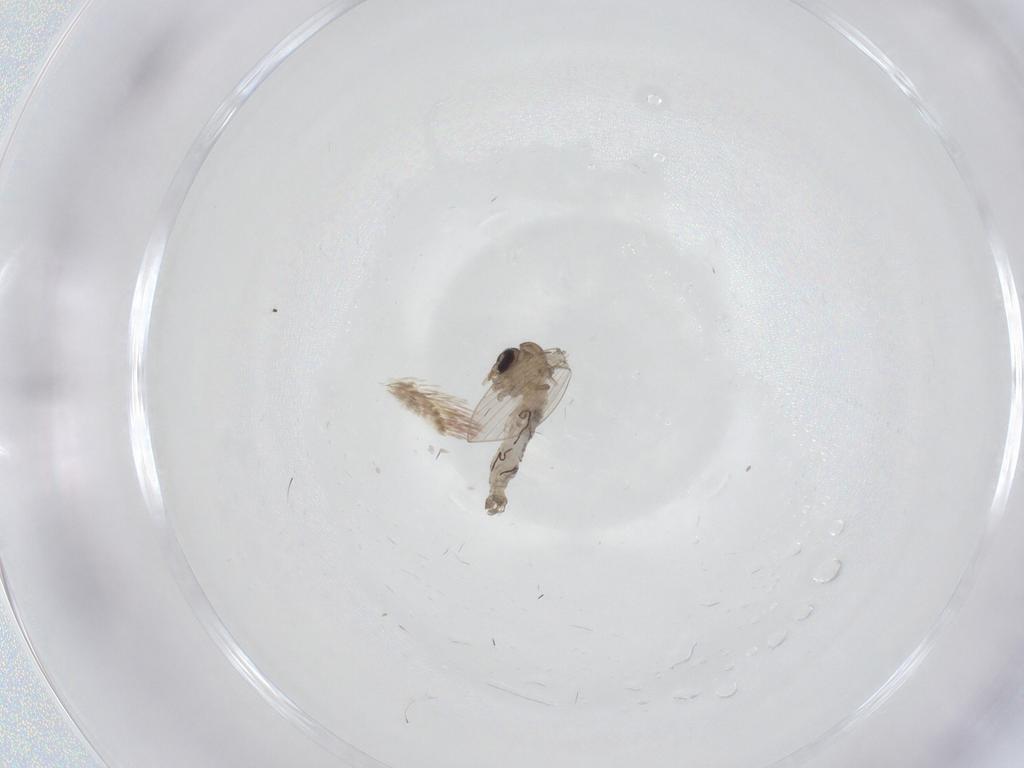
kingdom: Animalia
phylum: Arthropoda
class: Insecta
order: Diptera
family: Psychodidae
